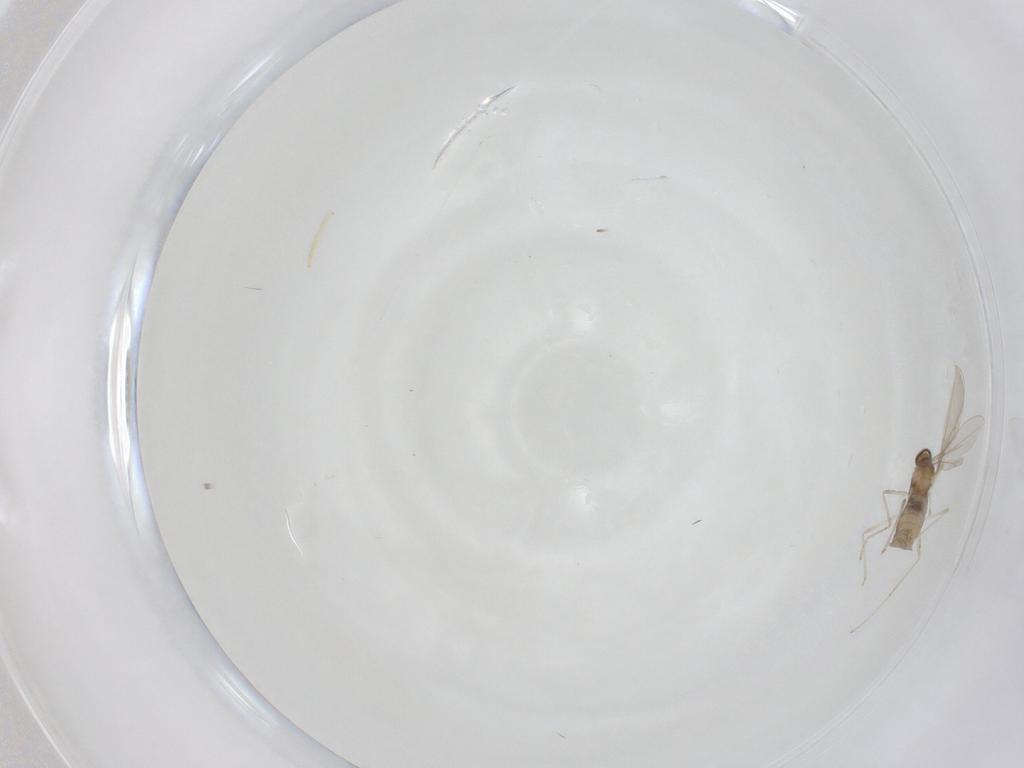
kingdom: Animalia
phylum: Arthropoda
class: Insecta
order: Diptera
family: Cecidomyiidae
